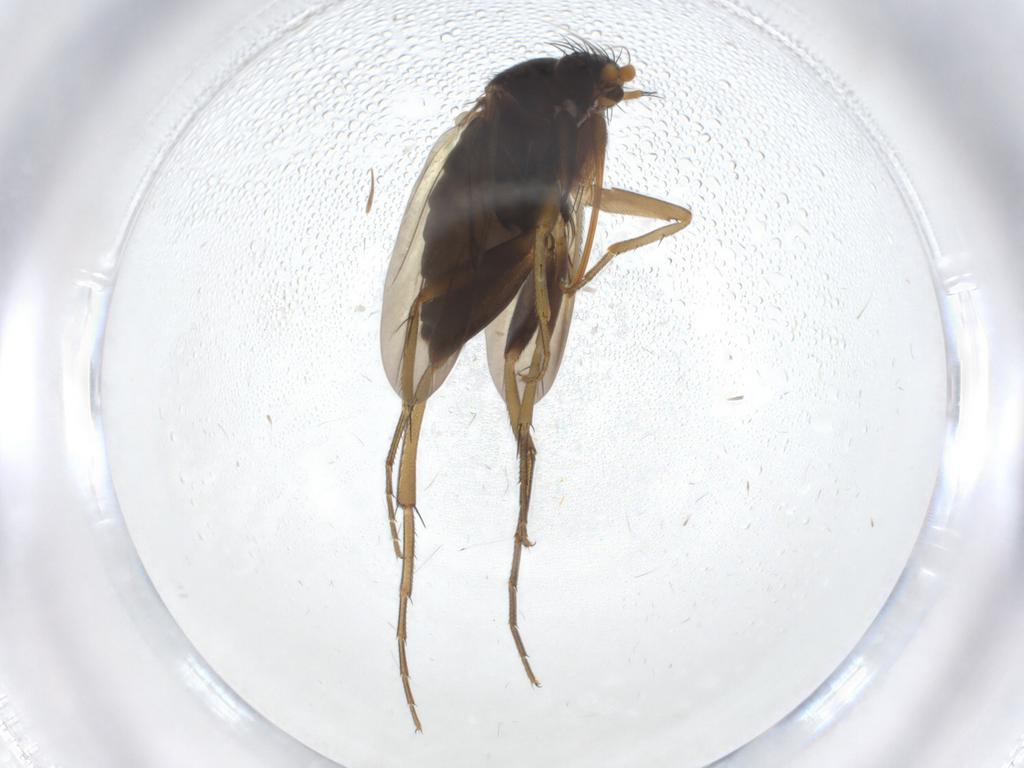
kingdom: Animalia
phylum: Arthropoda
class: Insecta
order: Diptera
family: Phoridae
